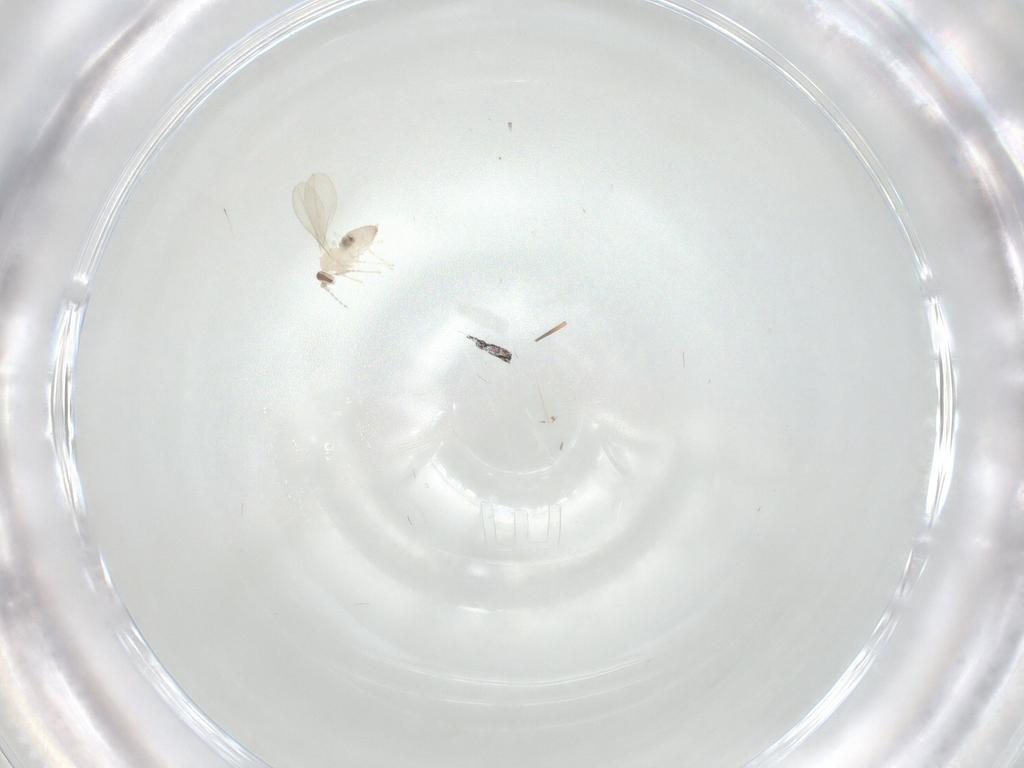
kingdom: Animalia
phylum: Arthropoda
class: Insecta
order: Diptera
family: Cecidomyiidae
